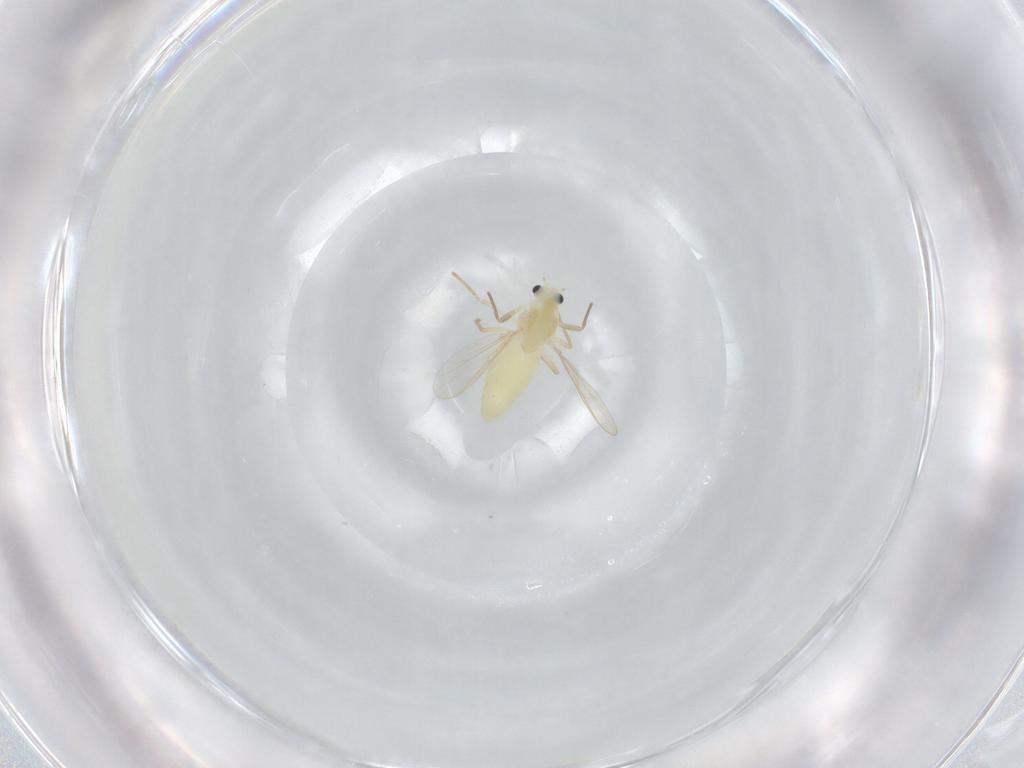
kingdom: Animalia
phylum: Arthropoda
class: Insecta
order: Diptera
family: Chironomidae
